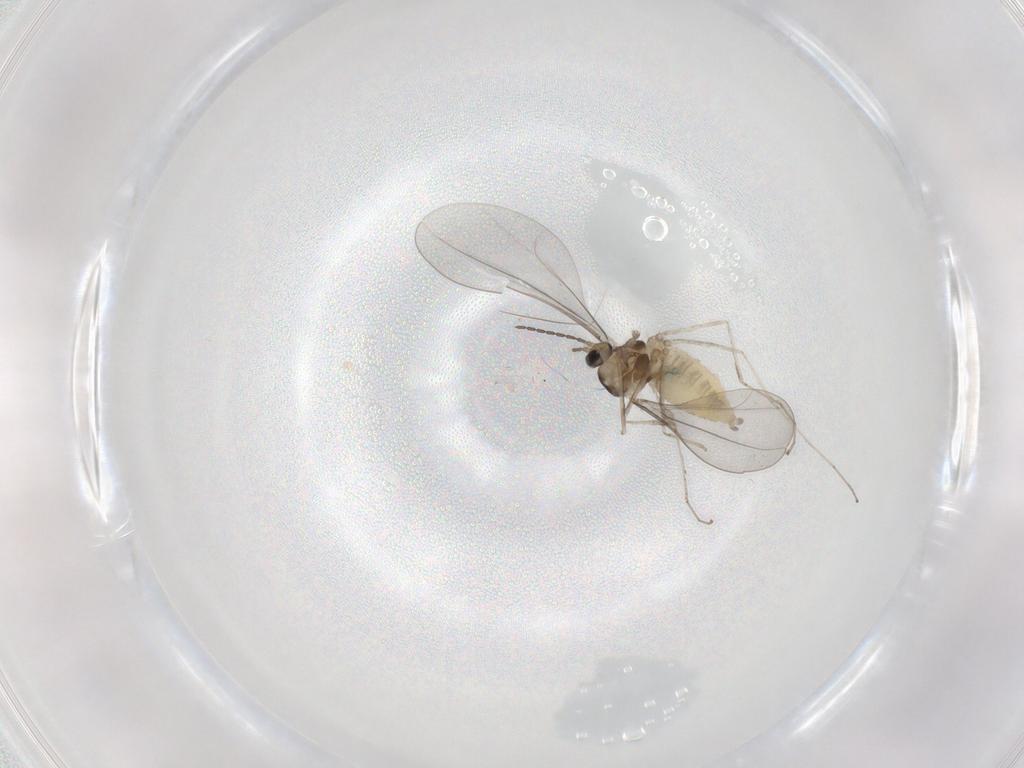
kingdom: Animalia
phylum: Arthropoda
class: Insecta
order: Diptera
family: Cecidomyiidae
